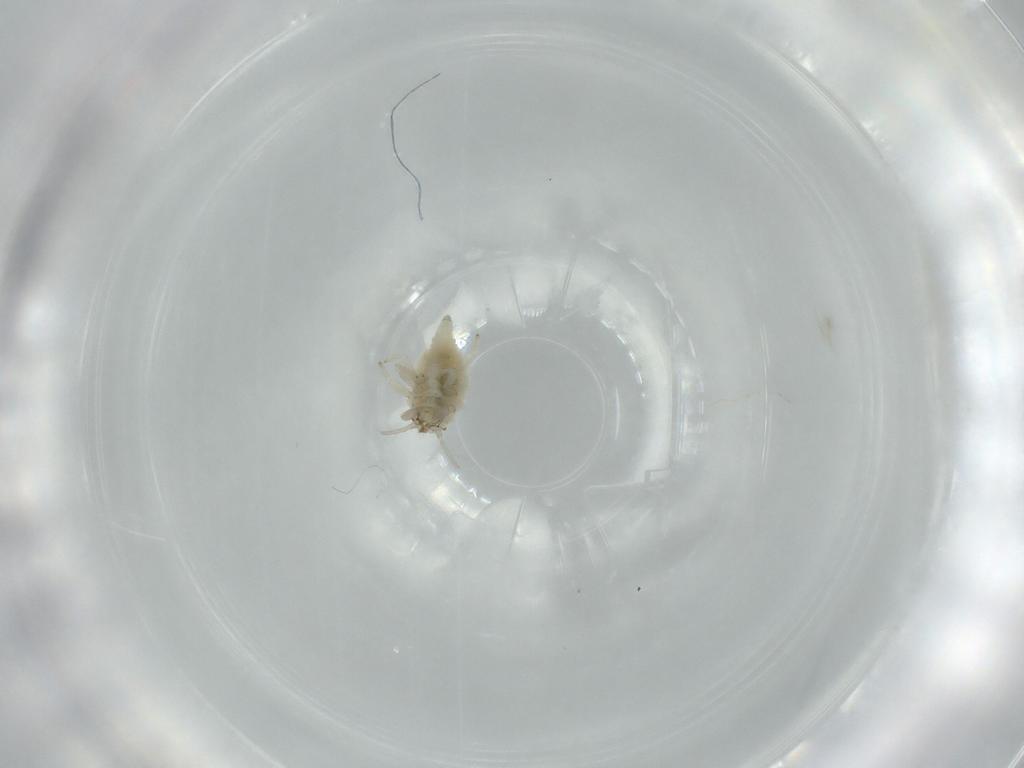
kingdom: Animalia
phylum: Arthropoda
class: Insecta
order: Neuroptera
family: Coniopterygidae
